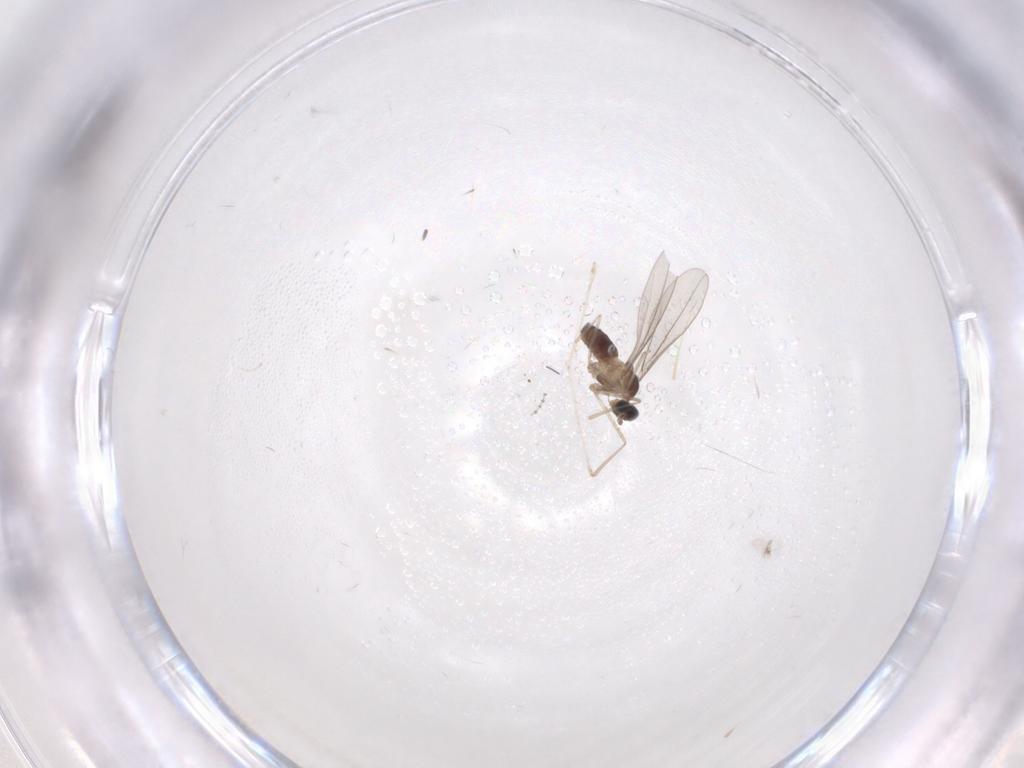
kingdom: Animalia
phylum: Arthropoda
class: Insecta
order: Diptera
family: Cecidomyiidae
